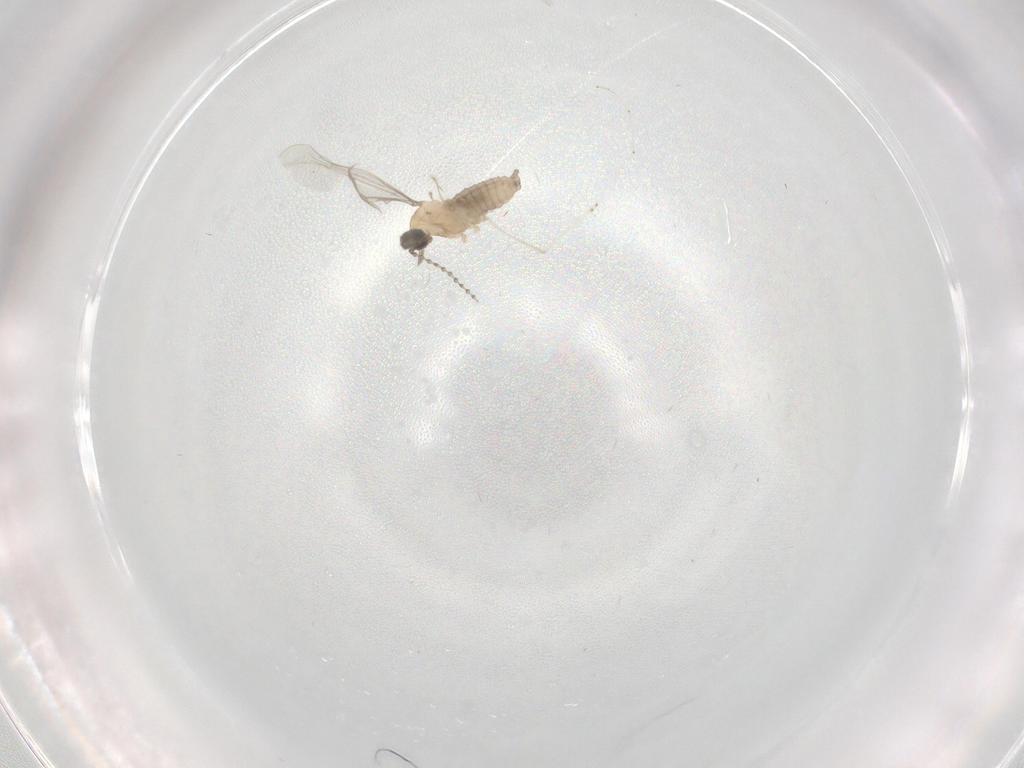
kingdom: Animalia
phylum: Arthropoda
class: Insecta
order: Diptera
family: Cecidomyiidae
